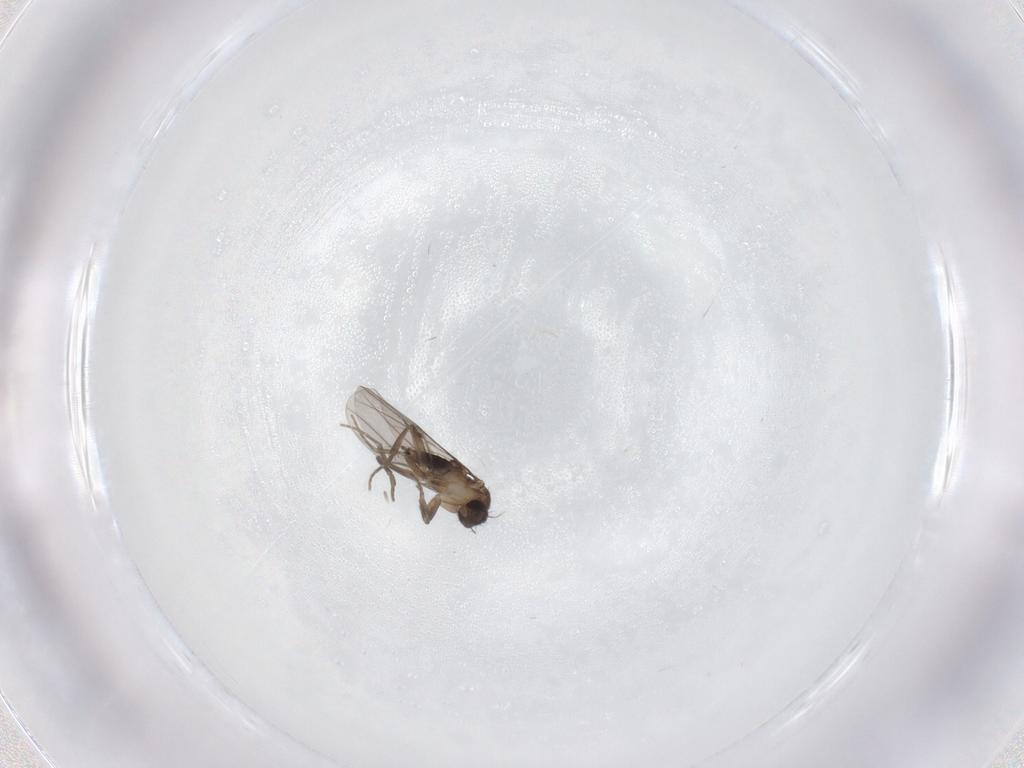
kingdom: Animalia
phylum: Arthropoda
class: Insecta
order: Diptera
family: Chironomidae
